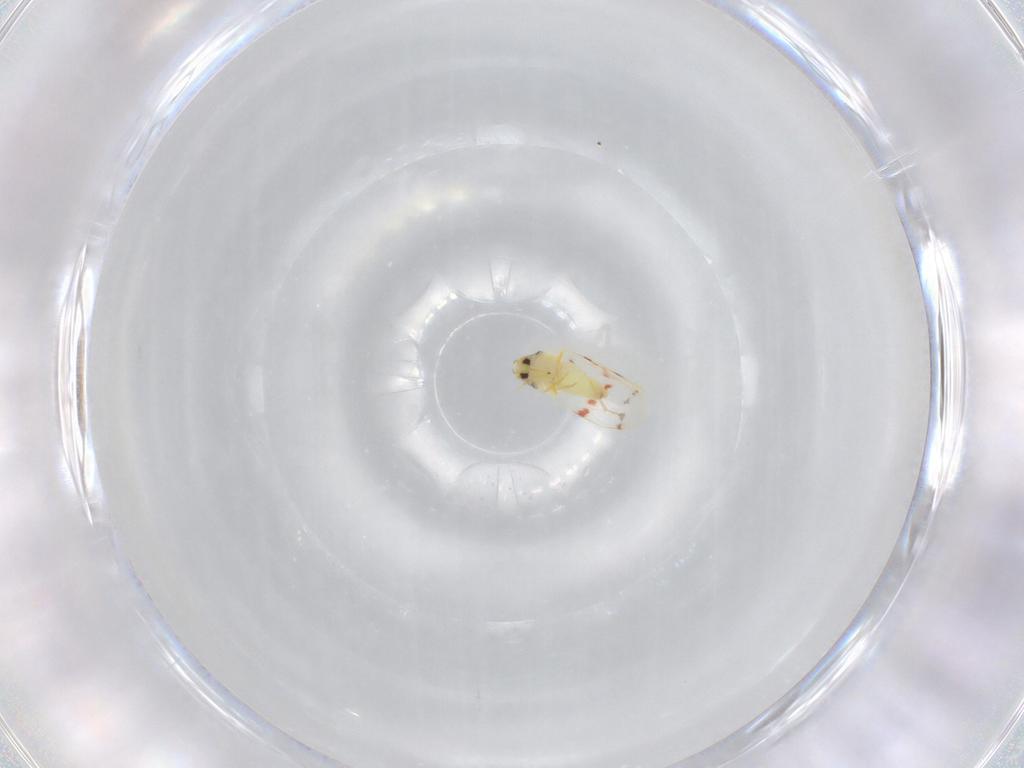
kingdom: Animalia
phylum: Arthropoda
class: Insecta
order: Hemiptera
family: Aleyrodidae
